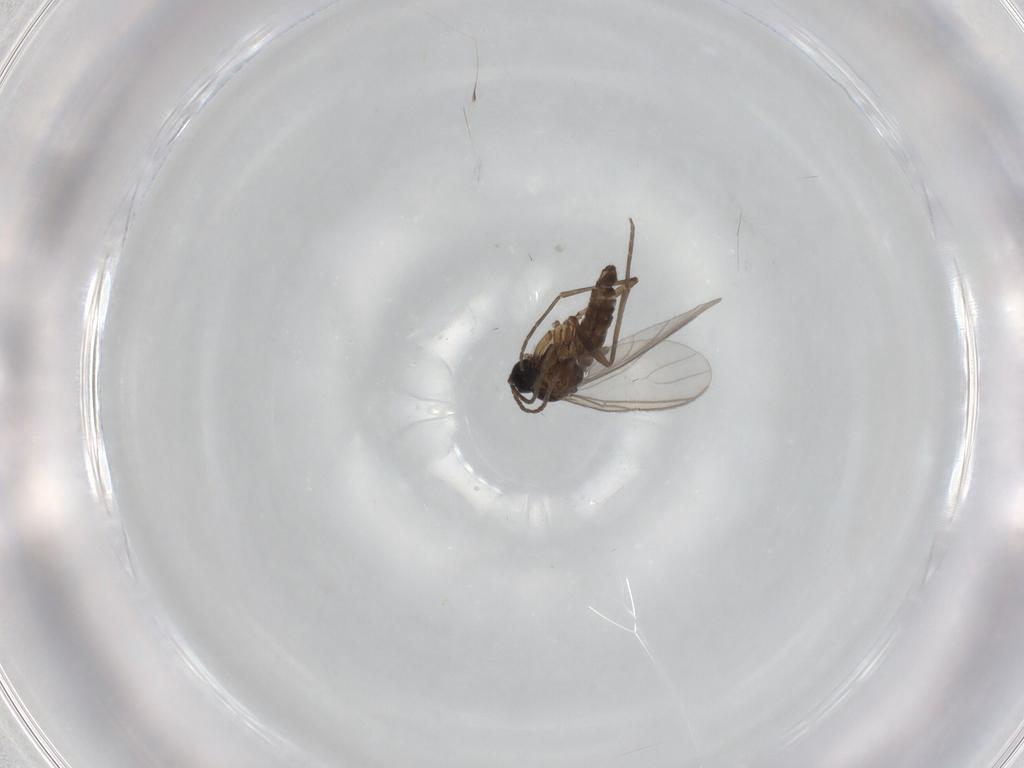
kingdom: Animalia
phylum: Arthropoda
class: Insecta
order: Diptera
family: Sciaridae
